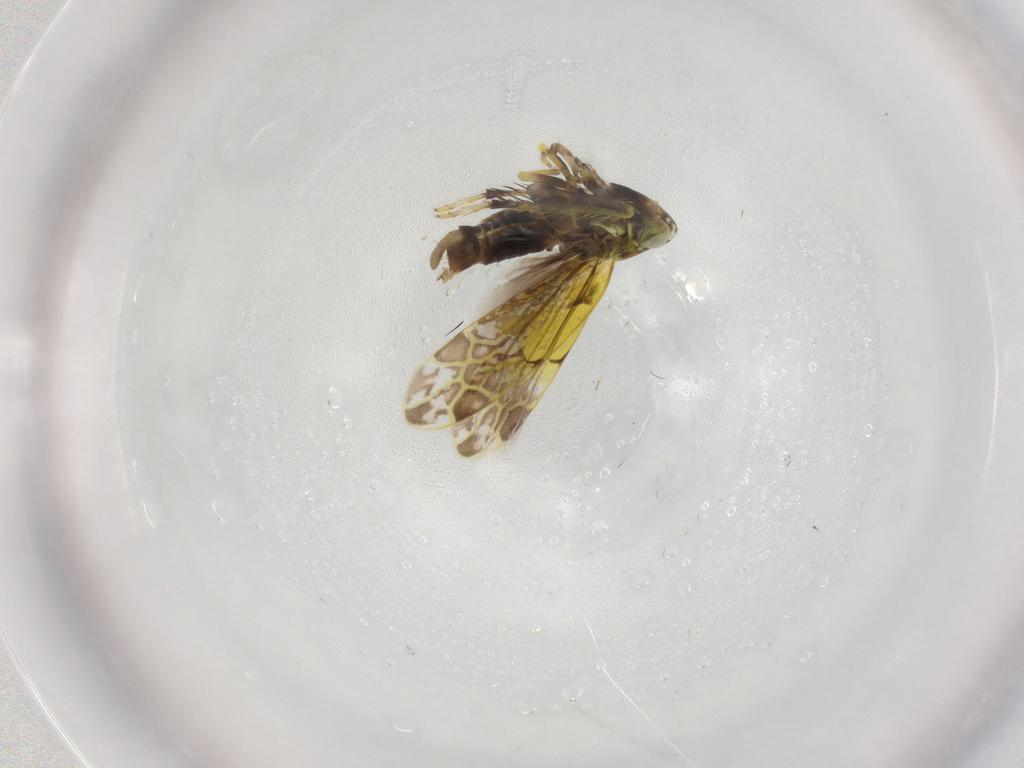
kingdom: Animalia
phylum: Arthropoda
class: Insecta
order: Hemiptera
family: Cicadellidae
